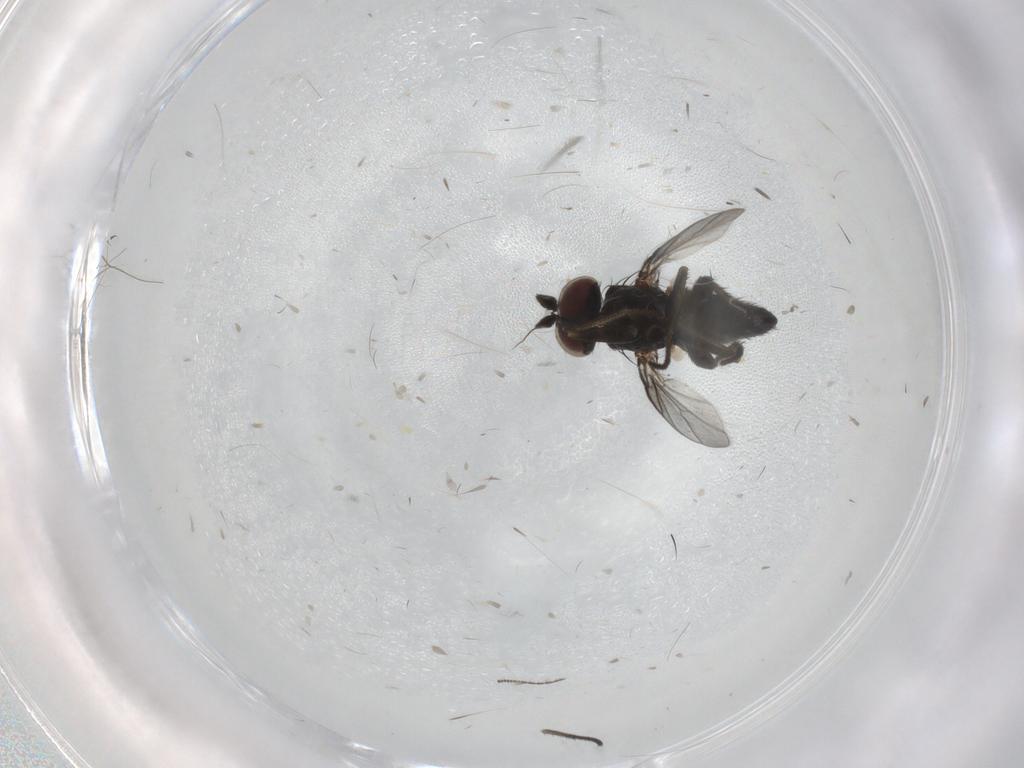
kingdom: Animalia
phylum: Arthropoda
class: Insecta
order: Diptera
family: Dolichopodidae
